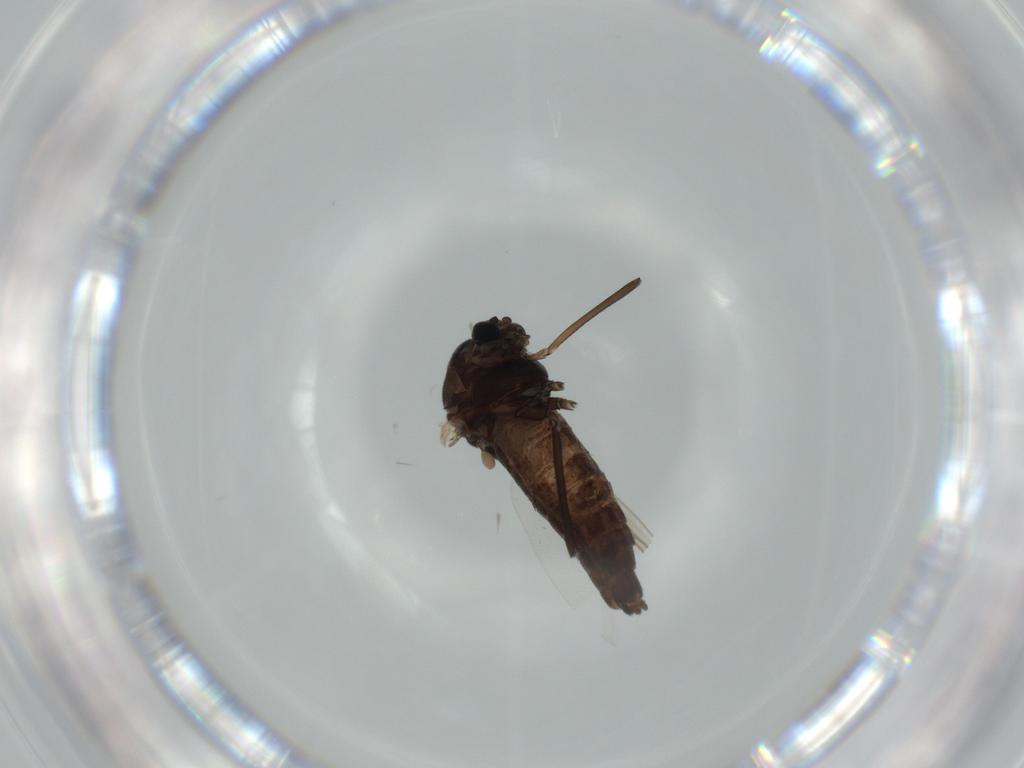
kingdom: Animalia
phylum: Arthropoda
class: Insecta
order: Diptera
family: Chironomidae
